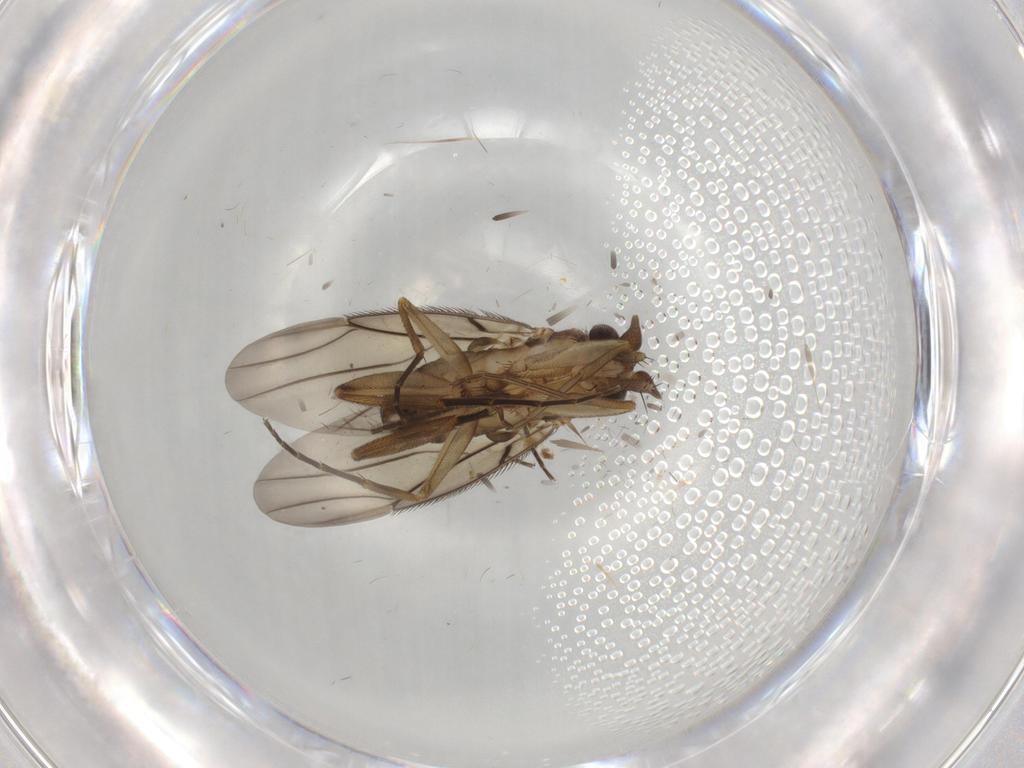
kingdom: Animalia
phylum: Arthropoda
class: Insecta
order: Diptera
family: Phoridae
